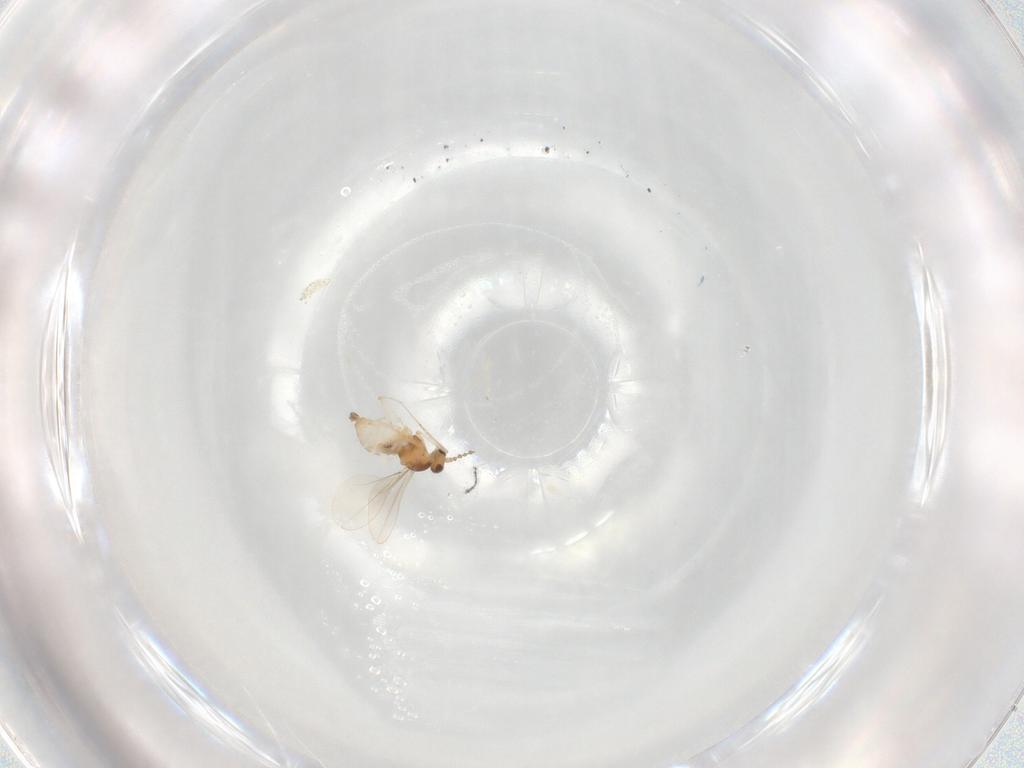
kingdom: Animalia
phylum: Arthropoda
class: Insecta
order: Diptera
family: Cecidomyiidae
